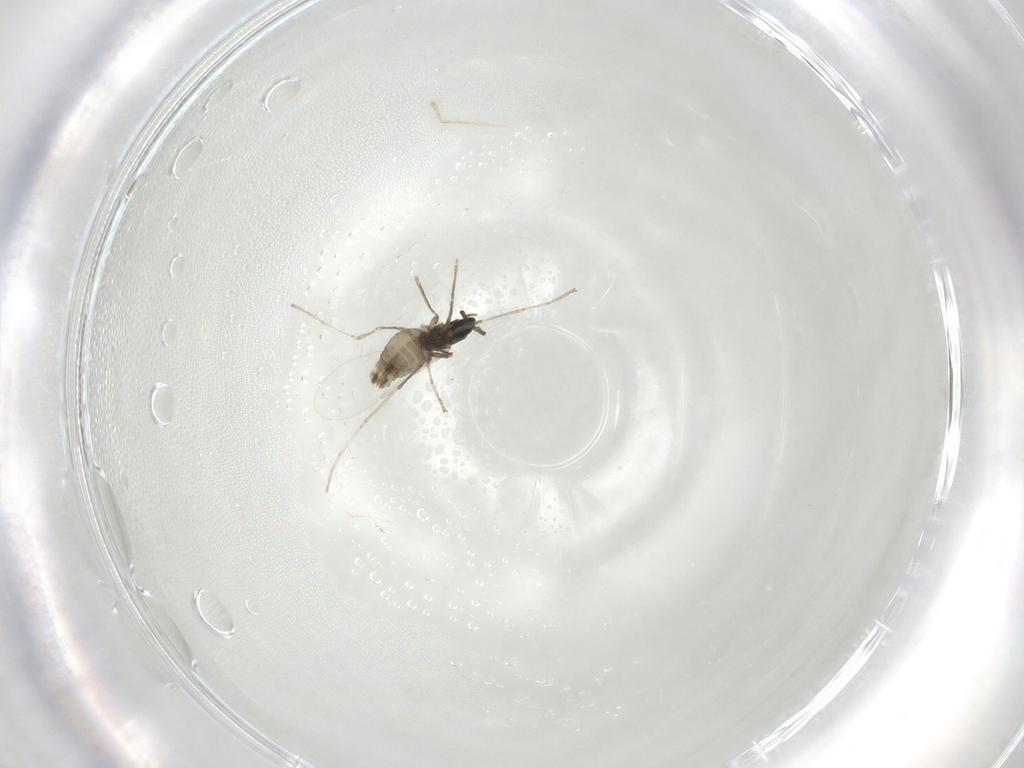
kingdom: Animalia
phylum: Arthropoda
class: Insecta
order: Diptera
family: Cecidomyiidae
